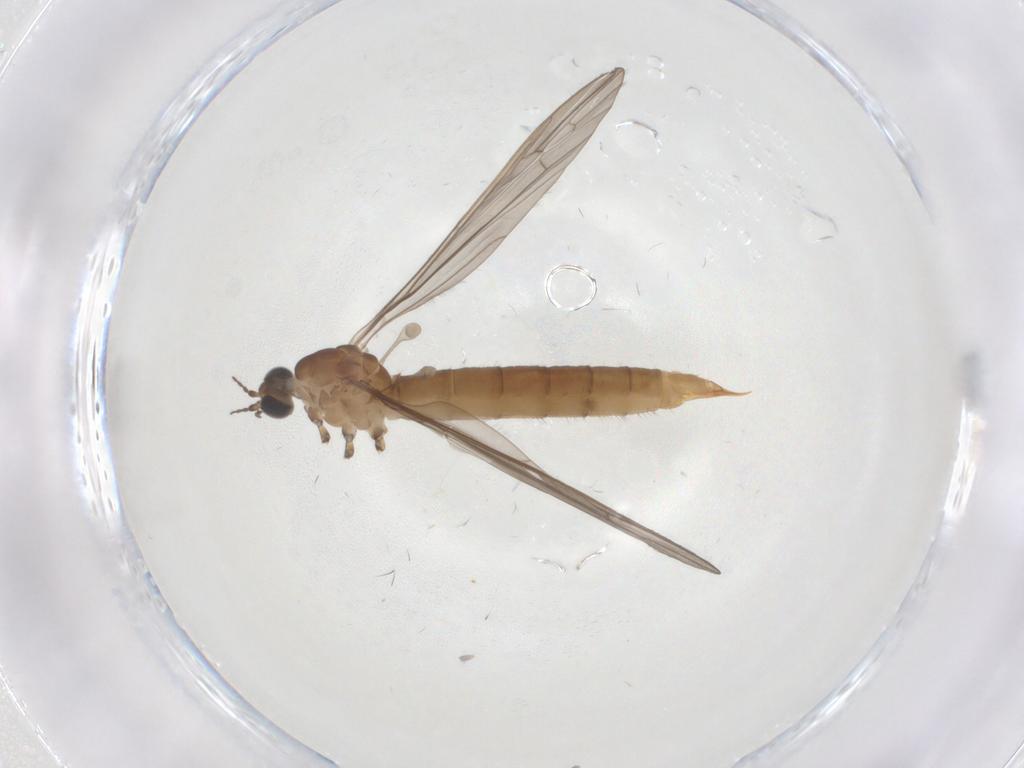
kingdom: Animalia
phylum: Arthropoda
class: Insecta
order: Diptera
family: Limoniidae
